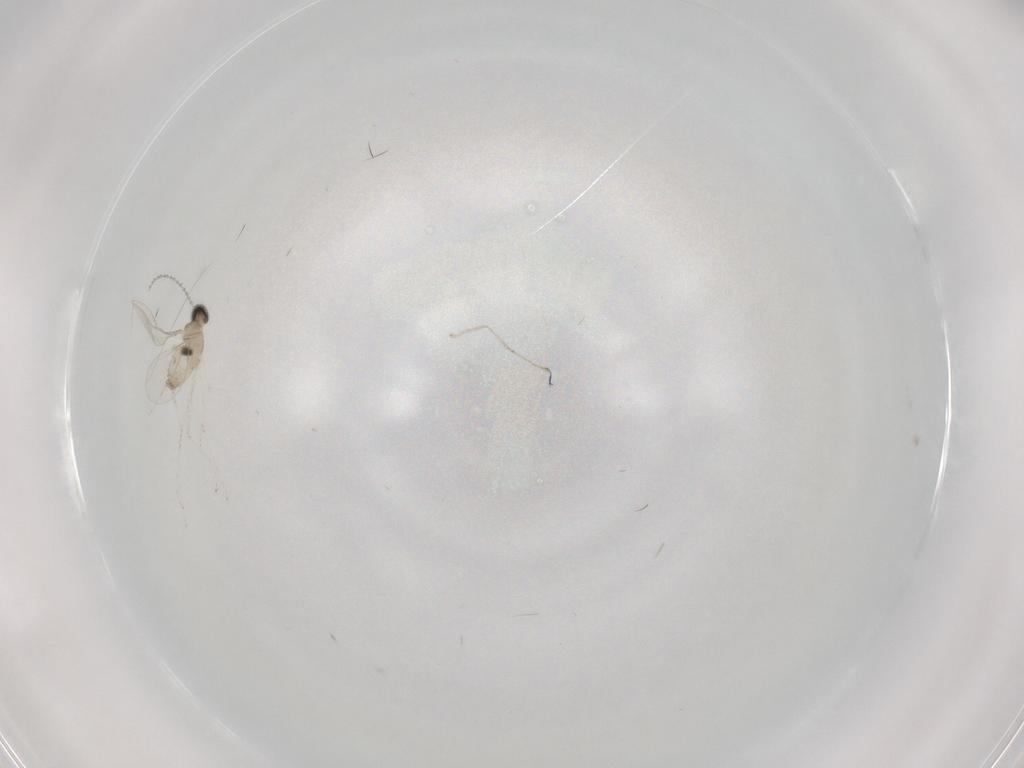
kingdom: Animalia
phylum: Arthropoda
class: Insecta
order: Diptera
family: Cecidomyiidae
